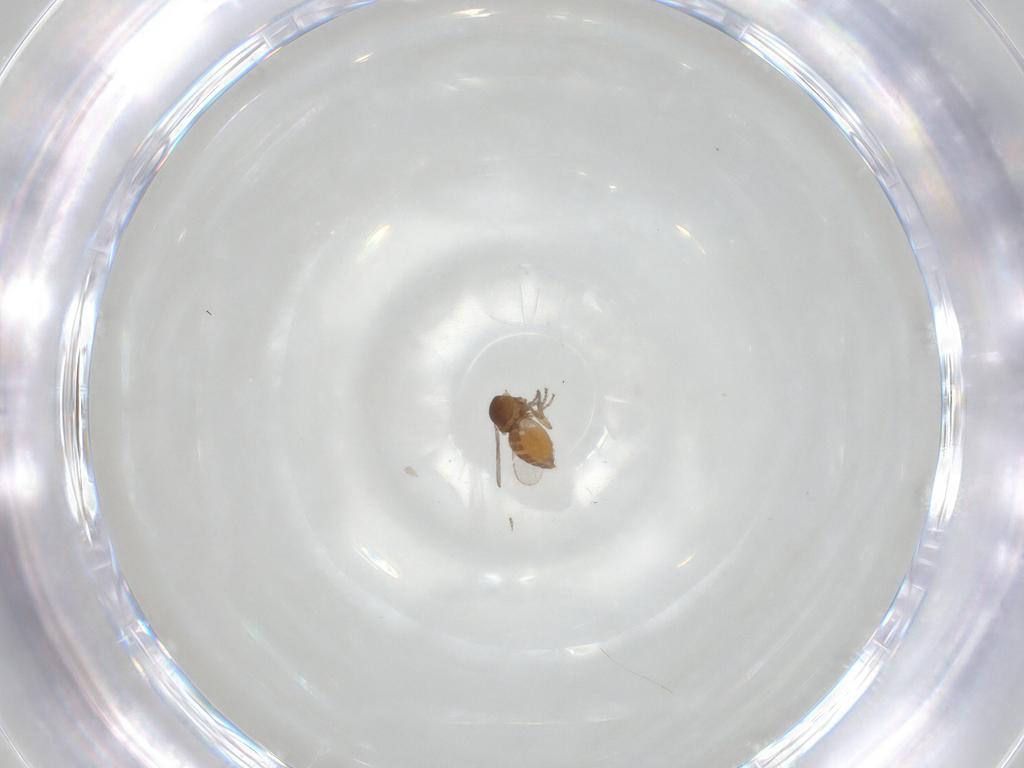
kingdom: Animalia
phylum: Arthropoda
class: Insecta
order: Diptera
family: Ceratopogonidae
